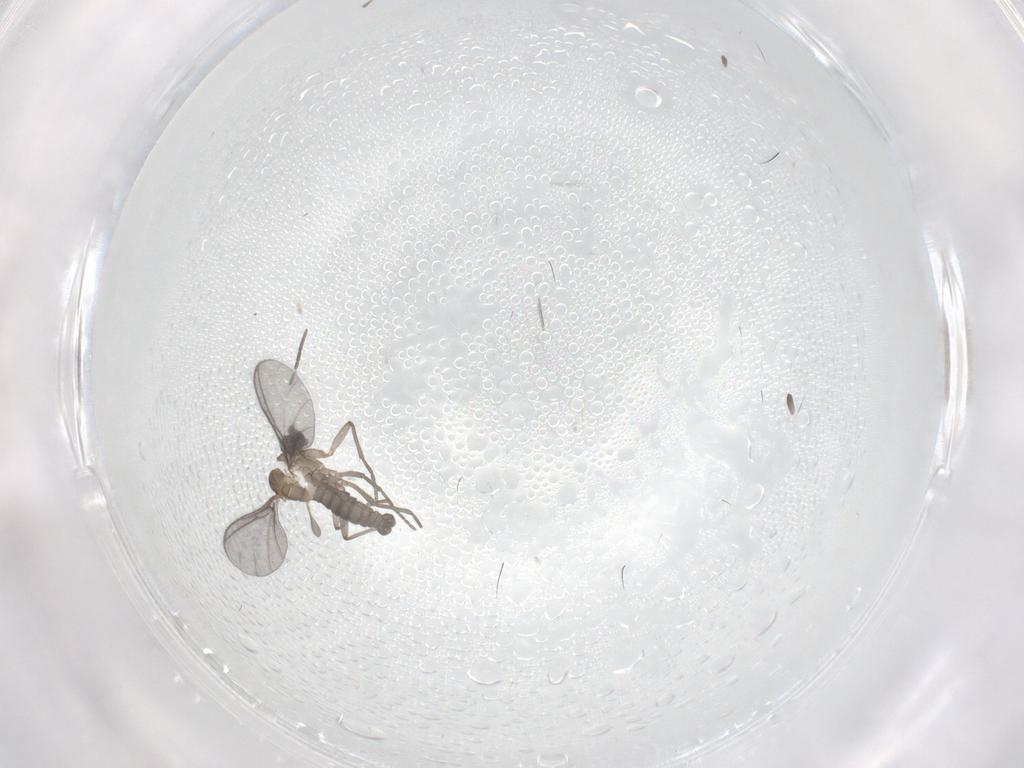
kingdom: Animalia
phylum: Arthropoda
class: Insecta
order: Diptera
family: Sciaridae
